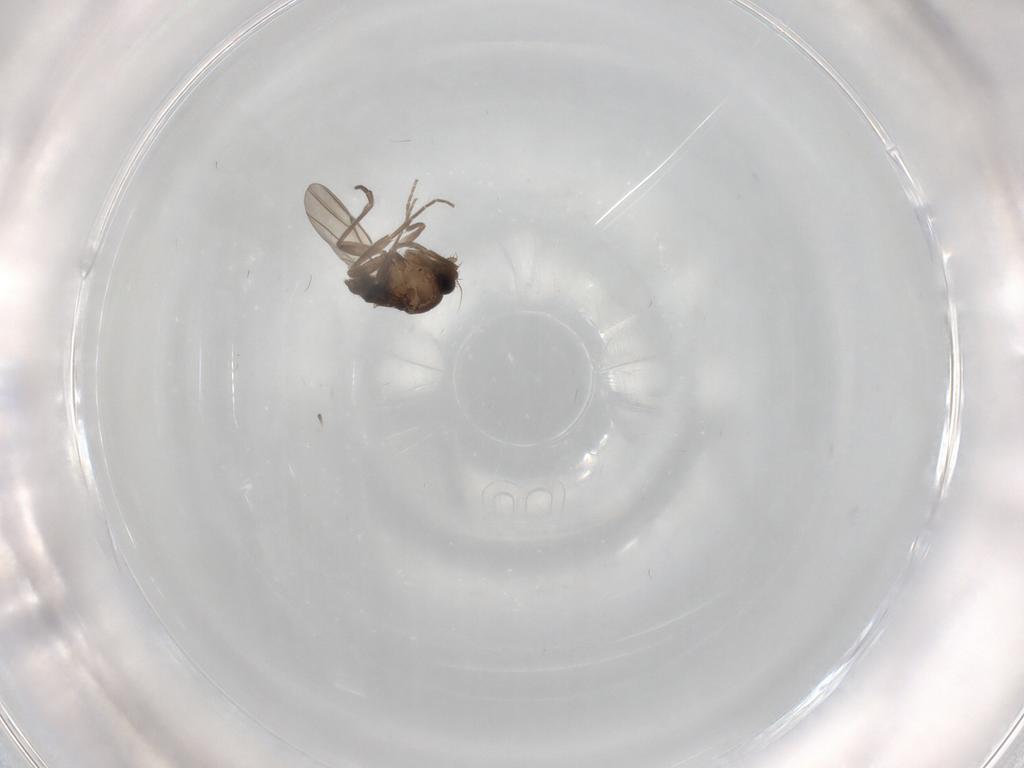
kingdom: Animalia
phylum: Arthropoda
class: Insecta
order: Diptera
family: Phoridae
